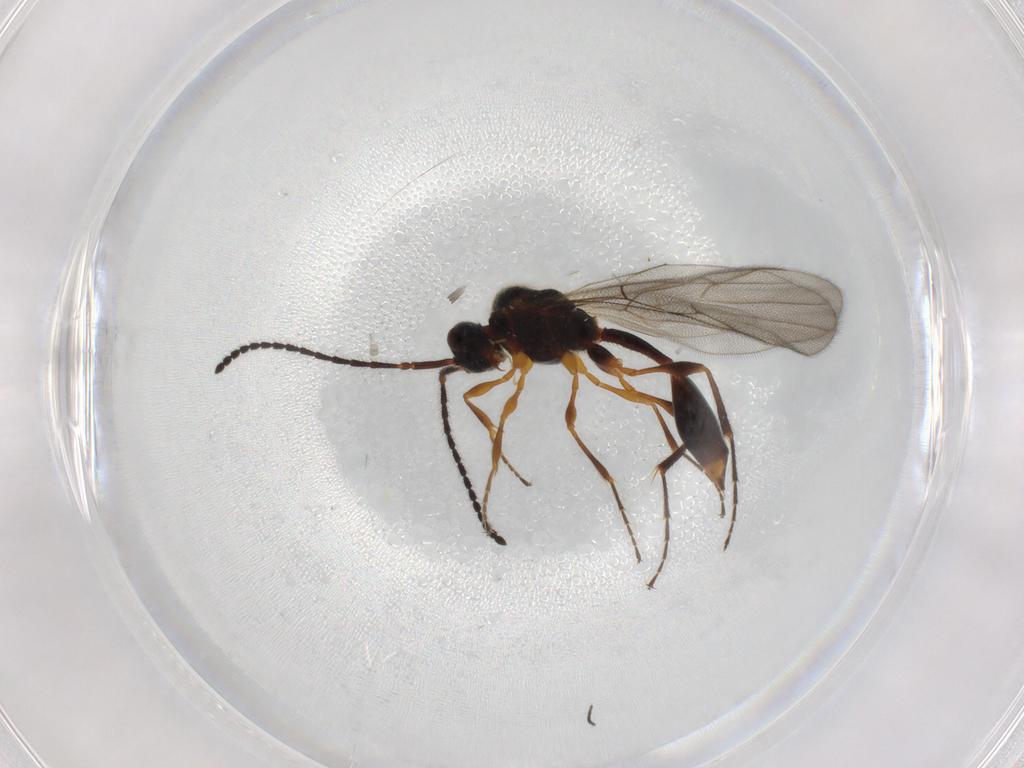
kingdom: Animalia
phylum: Arthropoda
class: Insecta
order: Hymenoptera
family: Diapriidae
